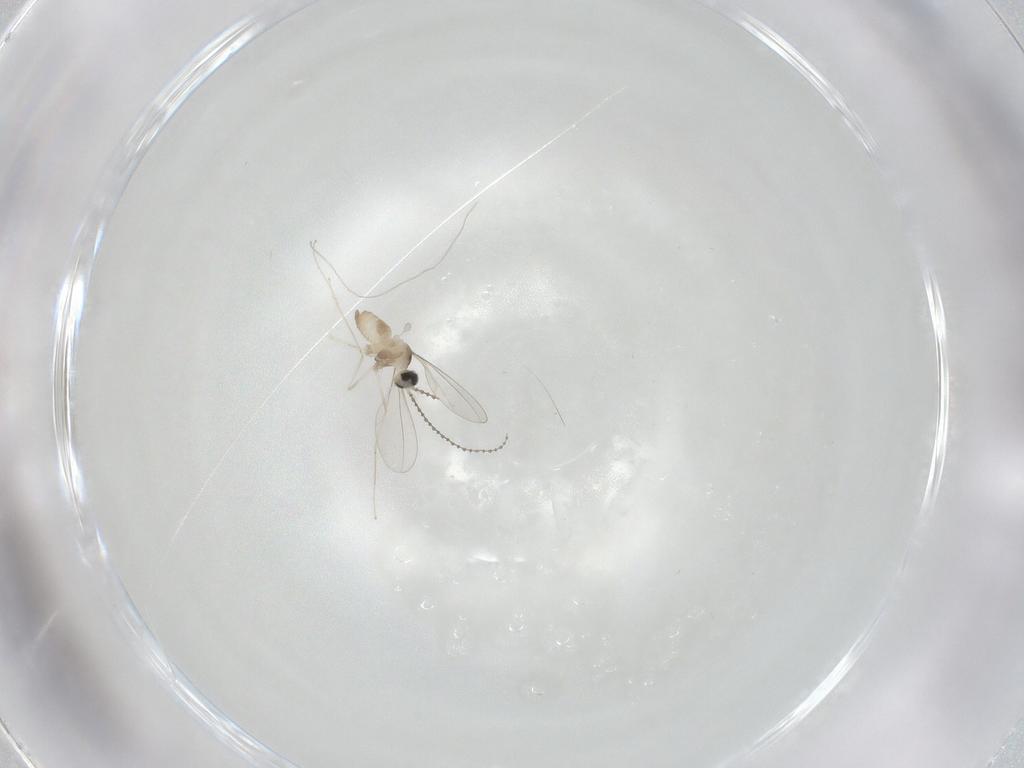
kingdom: Animalia
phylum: Arthropoda
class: Insecta
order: Diptera
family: Cecidomyiidae
